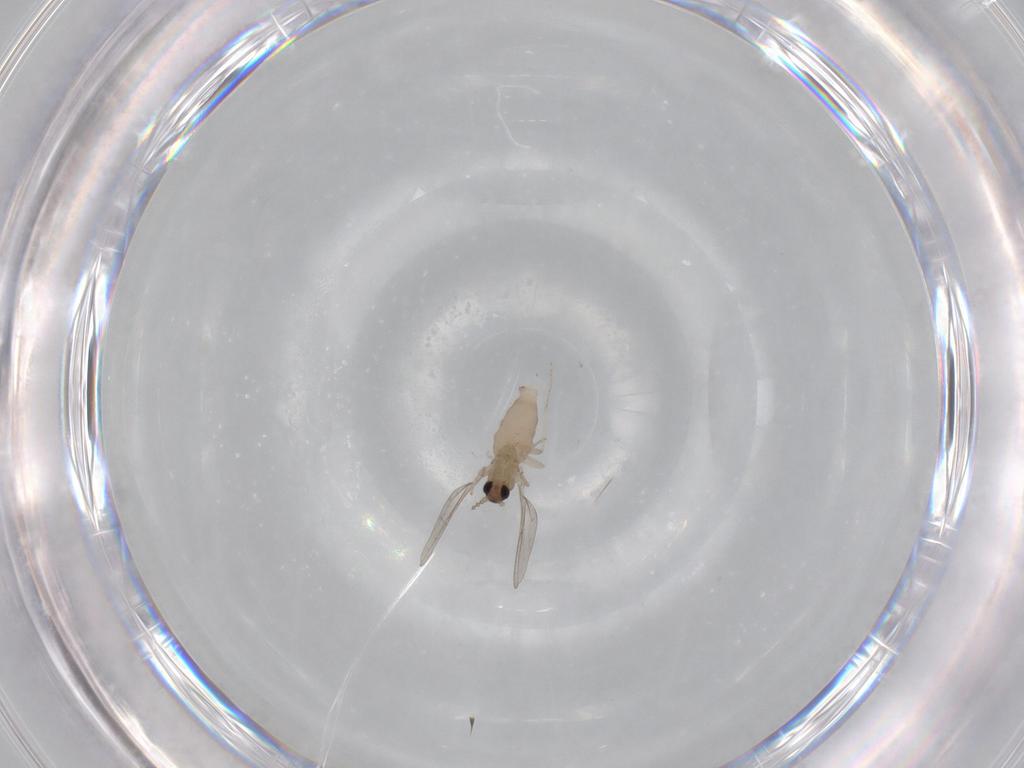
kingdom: Animalia
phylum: Arthropoda
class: Insecta
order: Diptera
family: Cecidomyiidae
